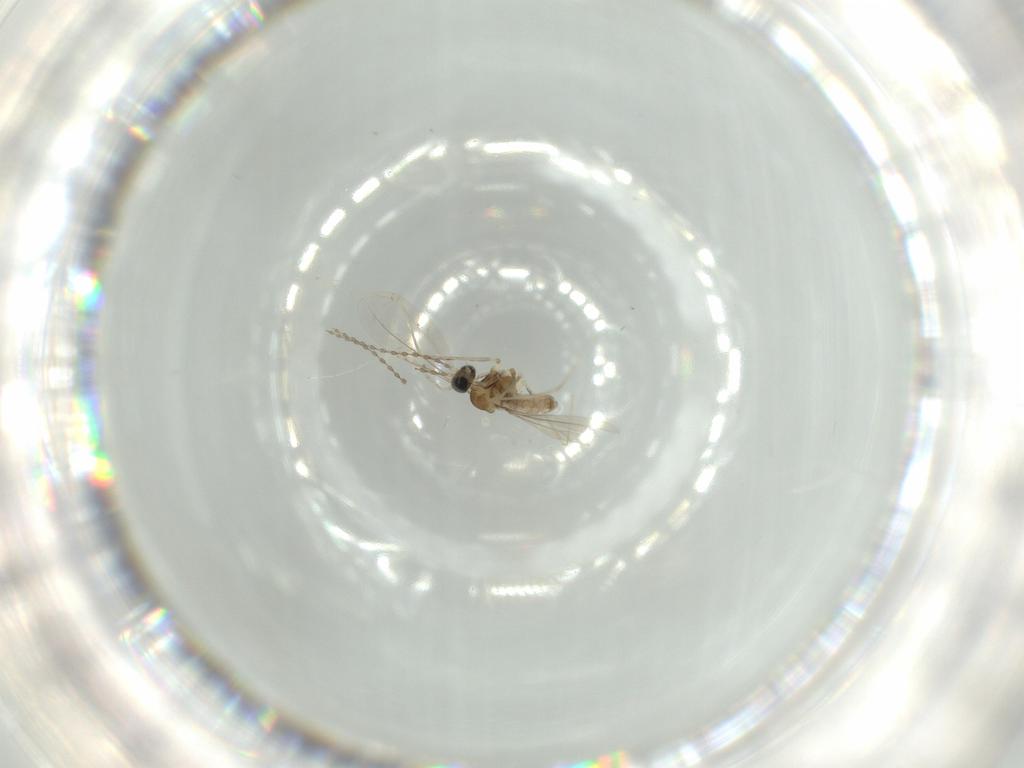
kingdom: Animalia
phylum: Arthropoda
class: Insecta
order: Diptera
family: Cecidomyiidae
